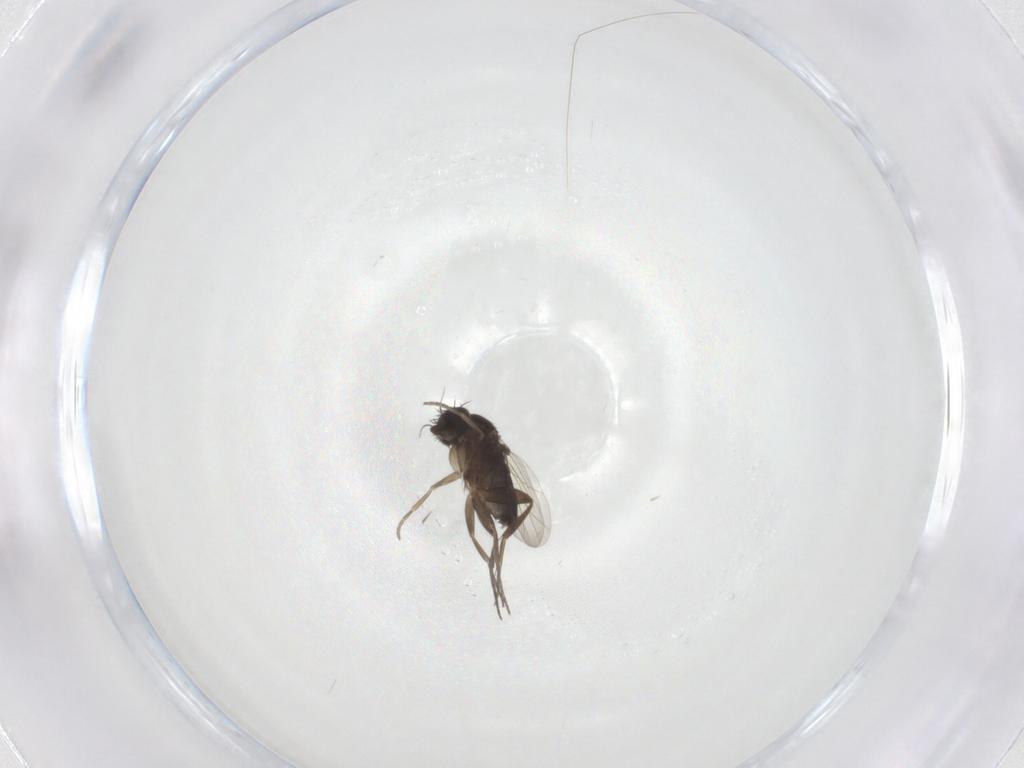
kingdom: Animalia
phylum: Arthropoda
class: Insecta
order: Diptera
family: Phoridae
